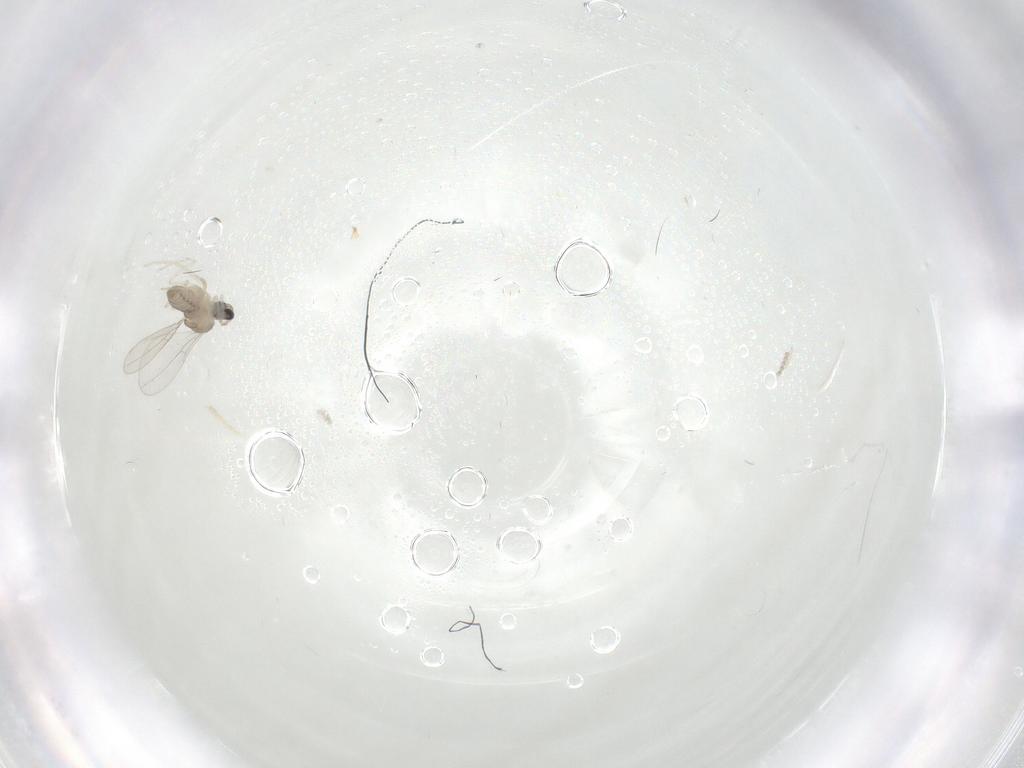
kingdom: Animalia
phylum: Arthropoda
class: Insecta
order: Diptera
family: Cecidomyiidae
